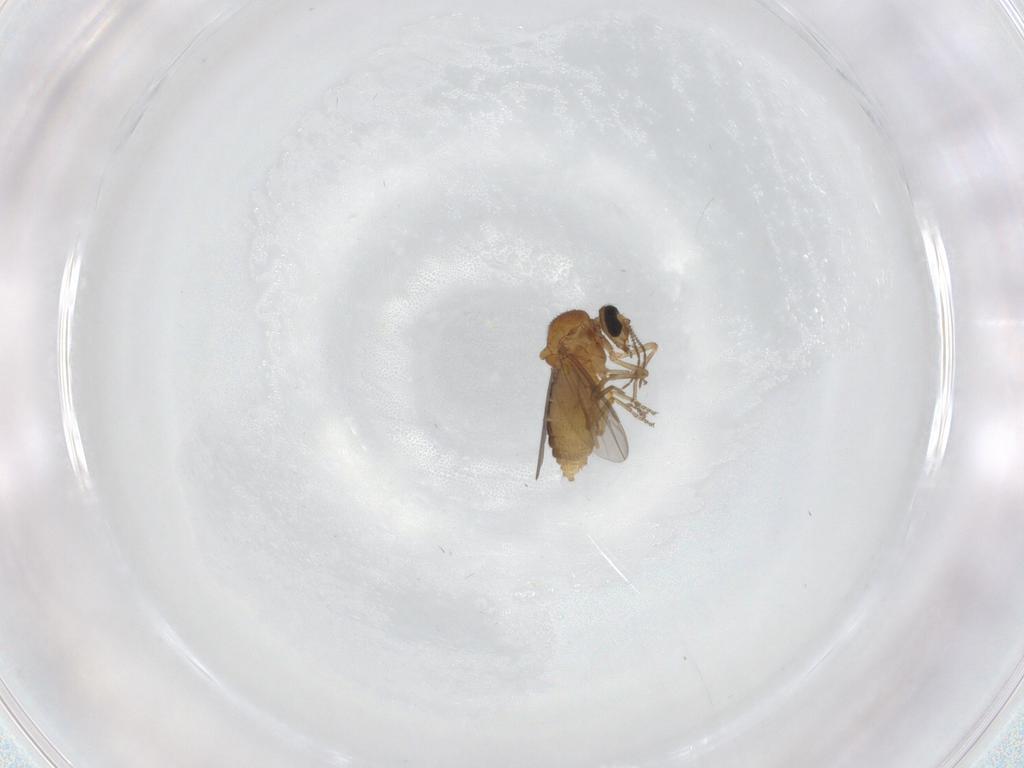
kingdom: Animalia
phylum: Arthropoda
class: Insecta
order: Diptera
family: Ceratopogonidae
